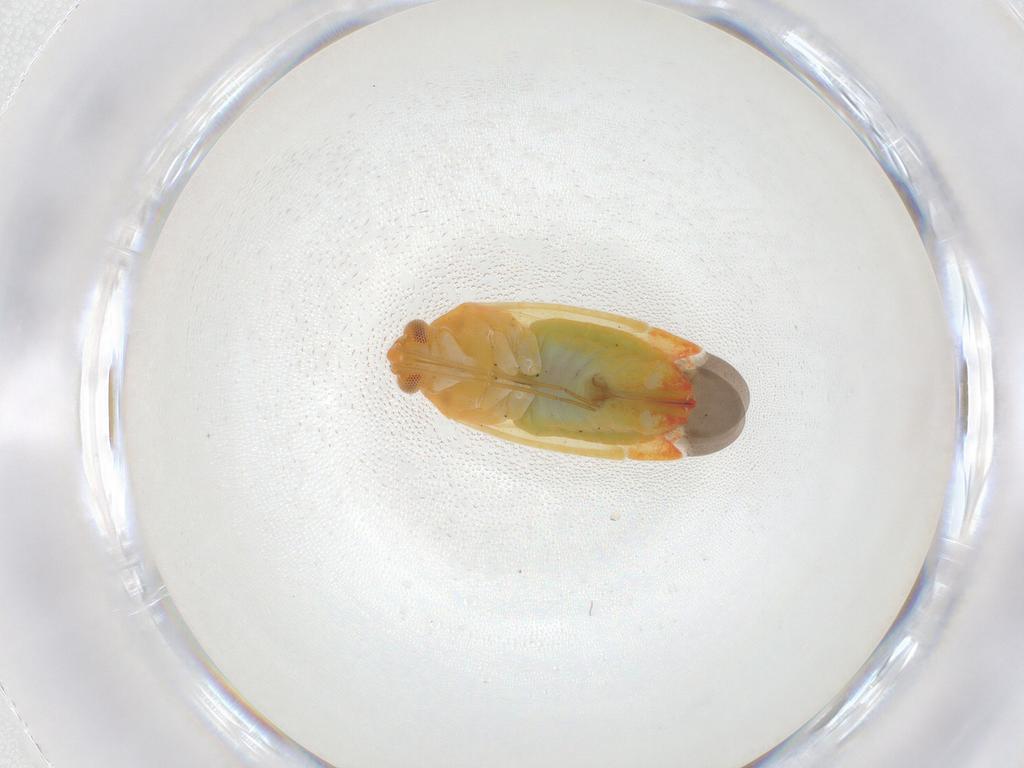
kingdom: Animalia
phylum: Arthropoda
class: Insecta
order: Hemiptera
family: Miridae
